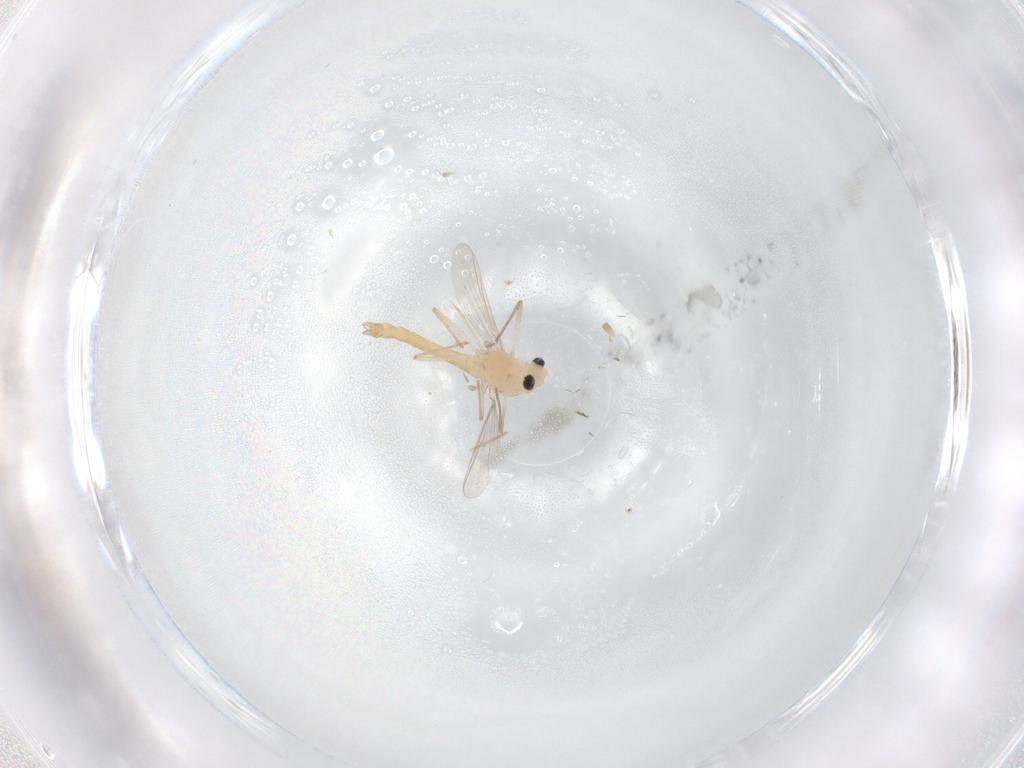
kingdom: Animalia
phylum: Arthropoda
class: Insecta
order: Diptera
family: Chironomidae
